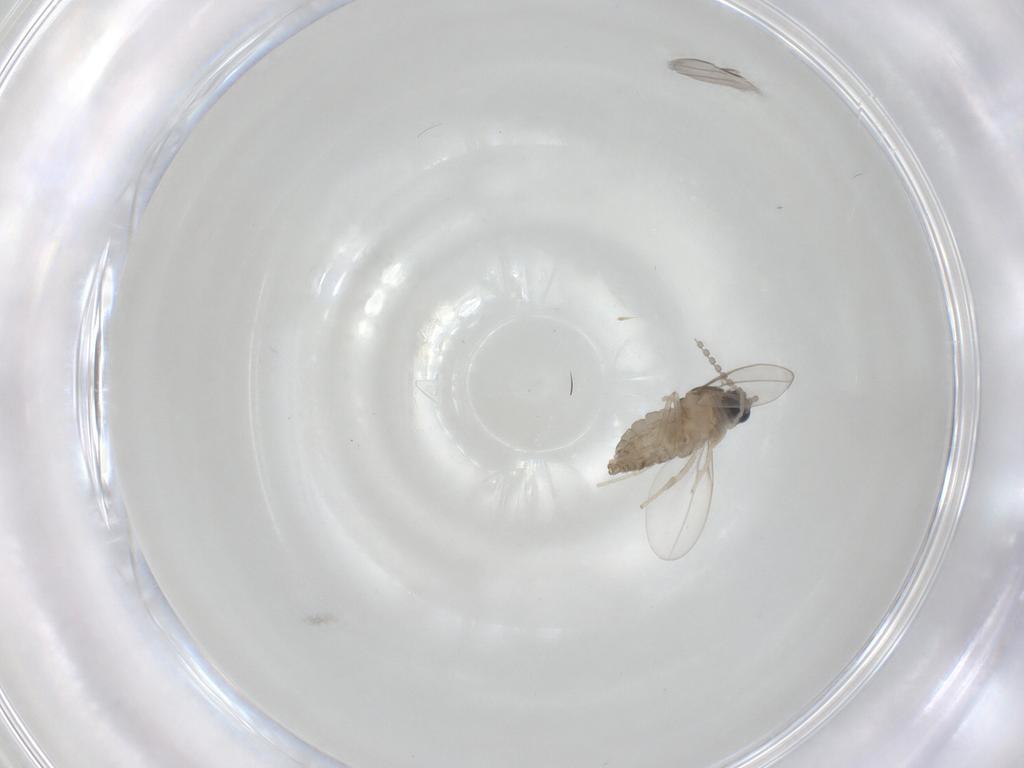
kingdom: Animalia
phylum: Arthropoda
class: Insecta
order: Diptera
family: Cecidomyiidae
